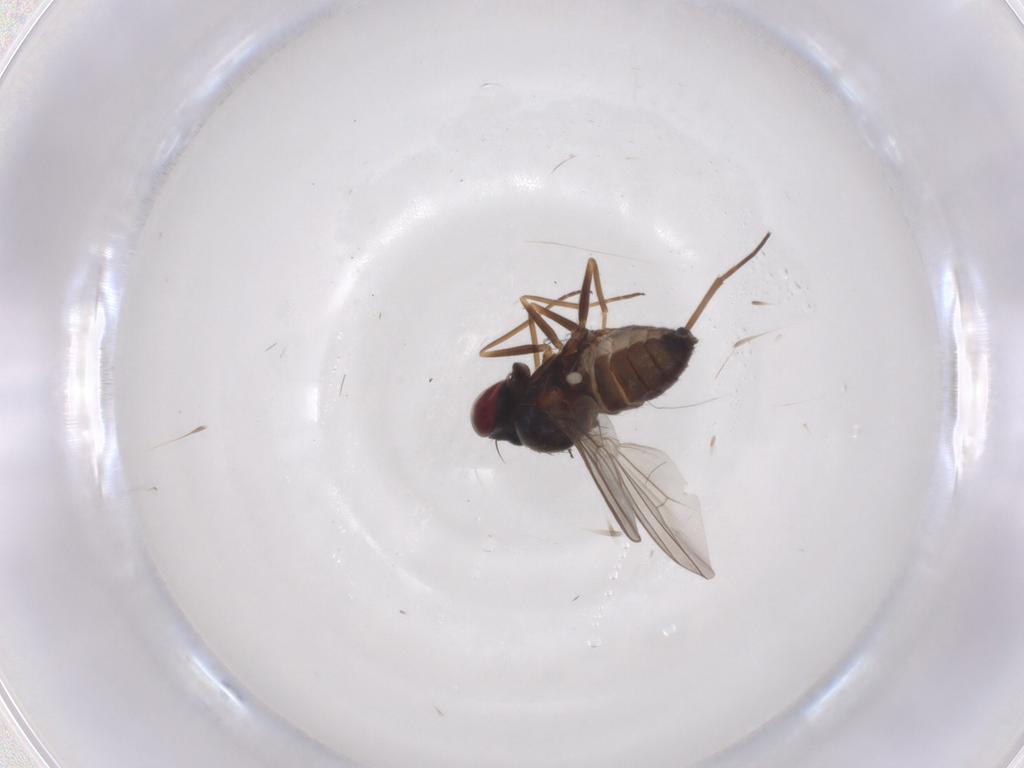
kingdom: Animalia
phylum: Arthropoda
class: Insecta
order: Diptera
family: Dolichopodidae
